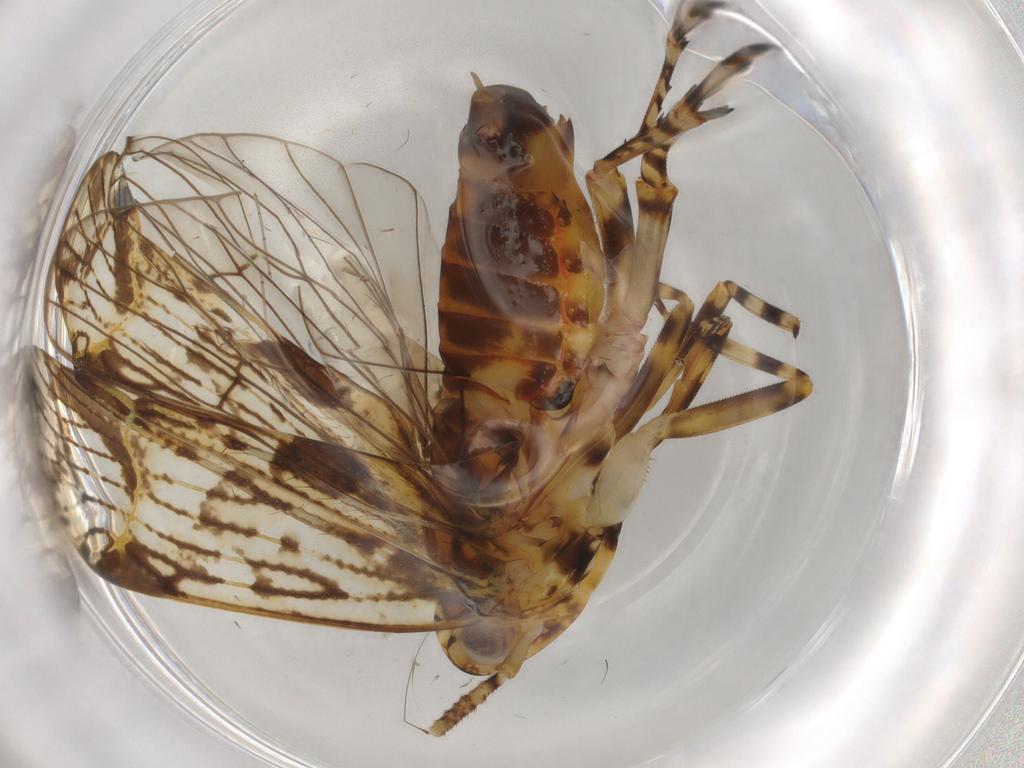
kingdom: Animalia
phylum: Arthropoda
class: Insecta
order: Hemiptera
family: Delphacidae
